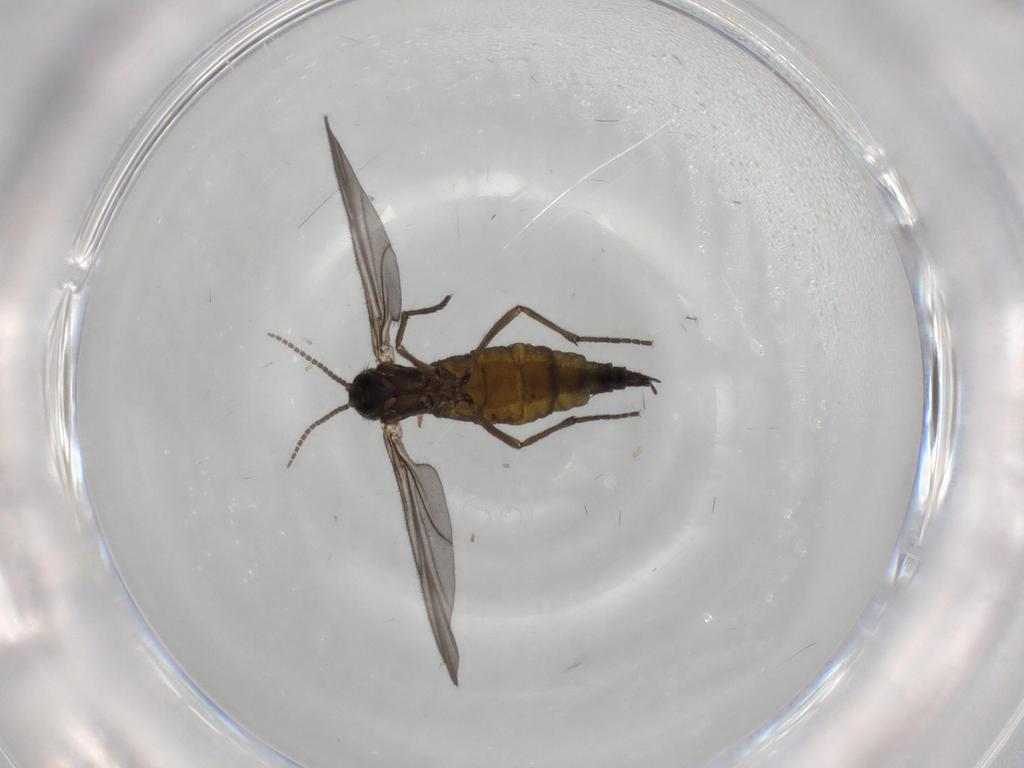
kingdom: Animalia
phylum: Arthropoda
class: Insecta
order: Diptera
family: Sciaridae
